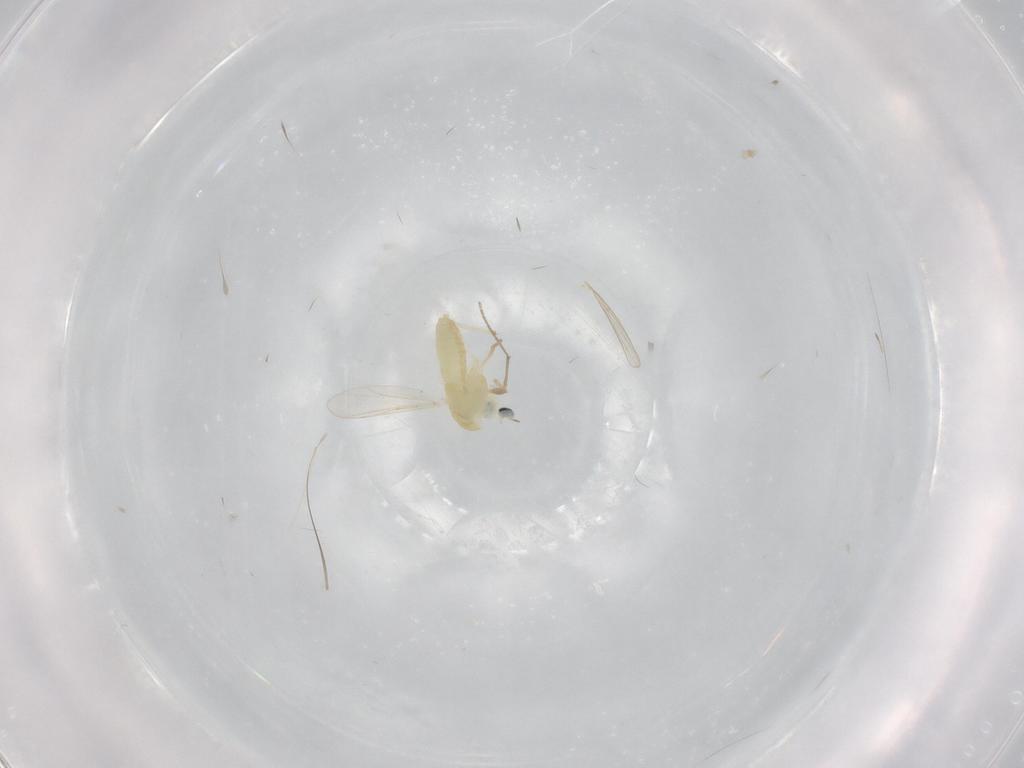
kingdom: Animalia
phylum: Arthropoda
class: Insecta
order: Diptera
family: Chironomidae
